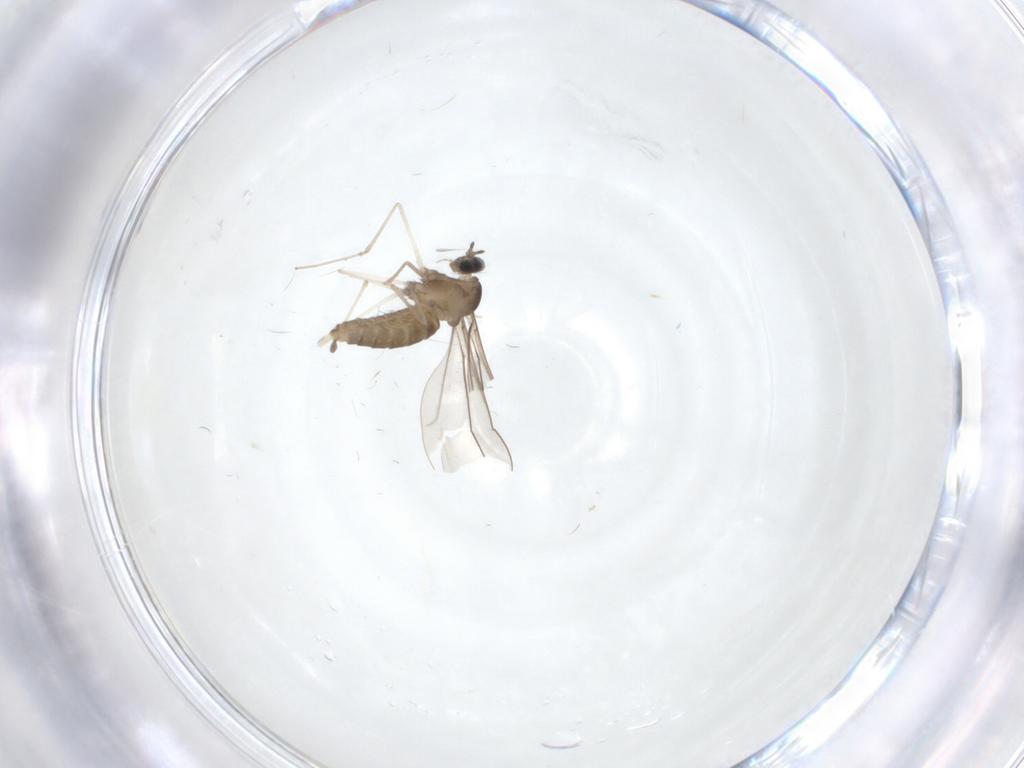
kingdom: Animalia
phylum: Arthropoda
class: Insecta
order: Diptera
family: Cecidomyiidae
